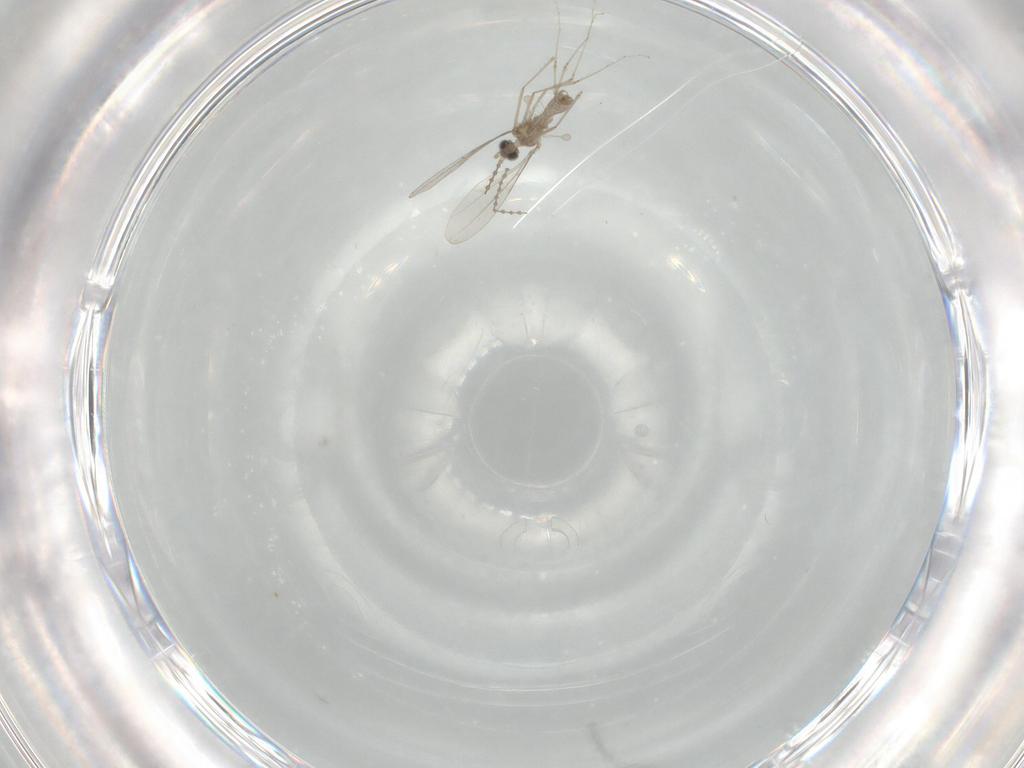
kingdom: Animalia
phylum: Arthropoda
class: Insecta
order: Diptera
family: Cecidomyiidae
